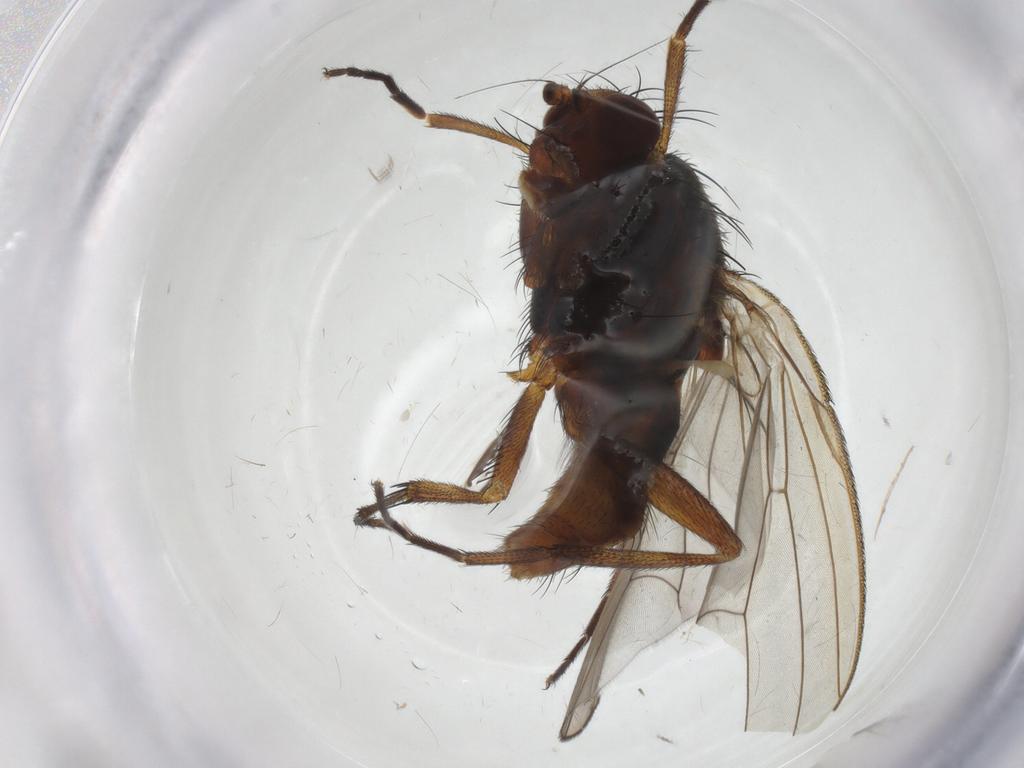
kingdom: Animalia
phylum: Arthropoda
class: Insecta
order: Diptera
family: Heleomyzidae
